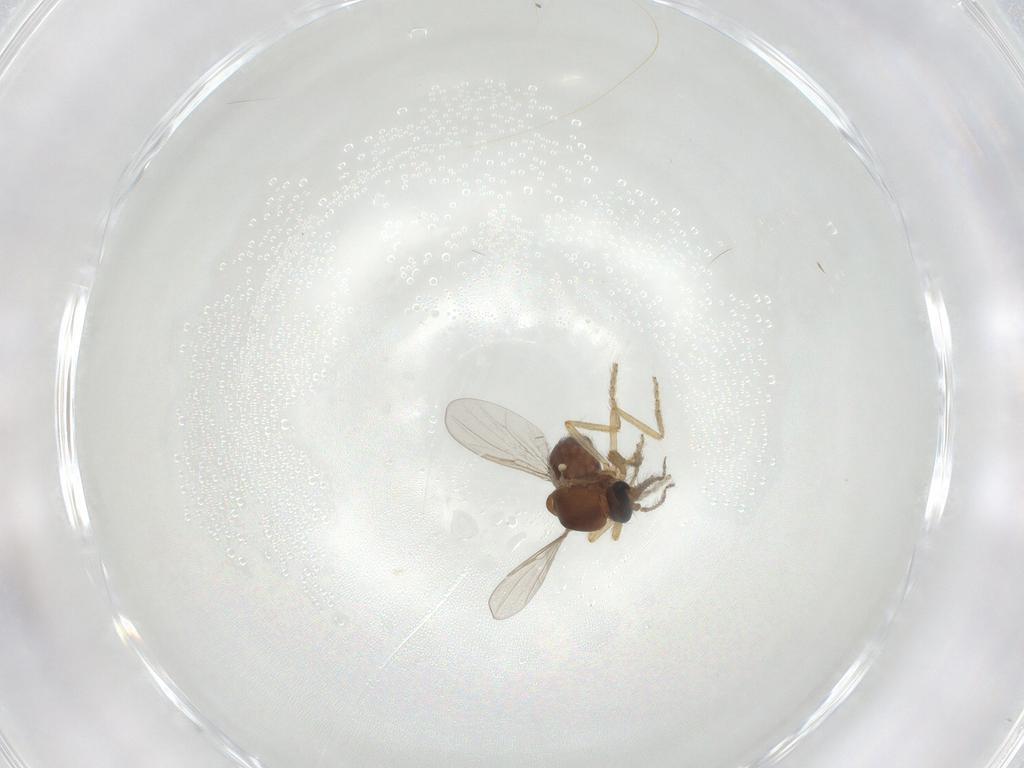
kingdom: Animalia
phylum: Arthropoda
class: Insecta
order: Diptera
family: Ceratopogonidae
